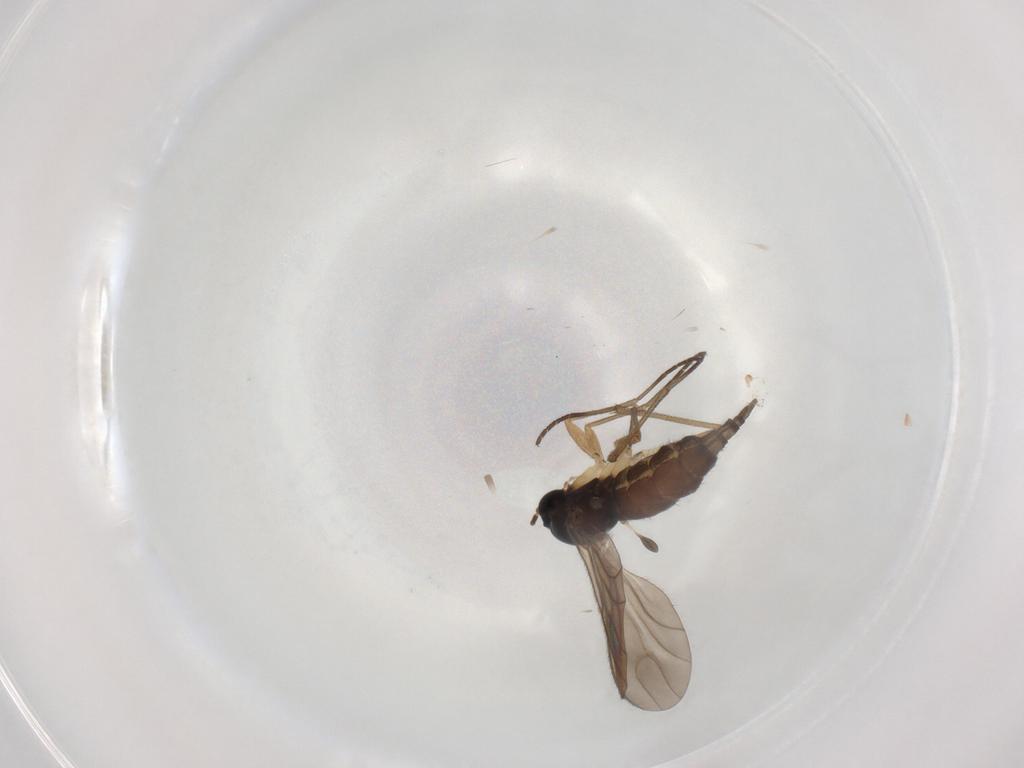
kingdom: Animalia
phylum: Arthropoda
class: Insecta
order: Diptera
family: Sciaridae
